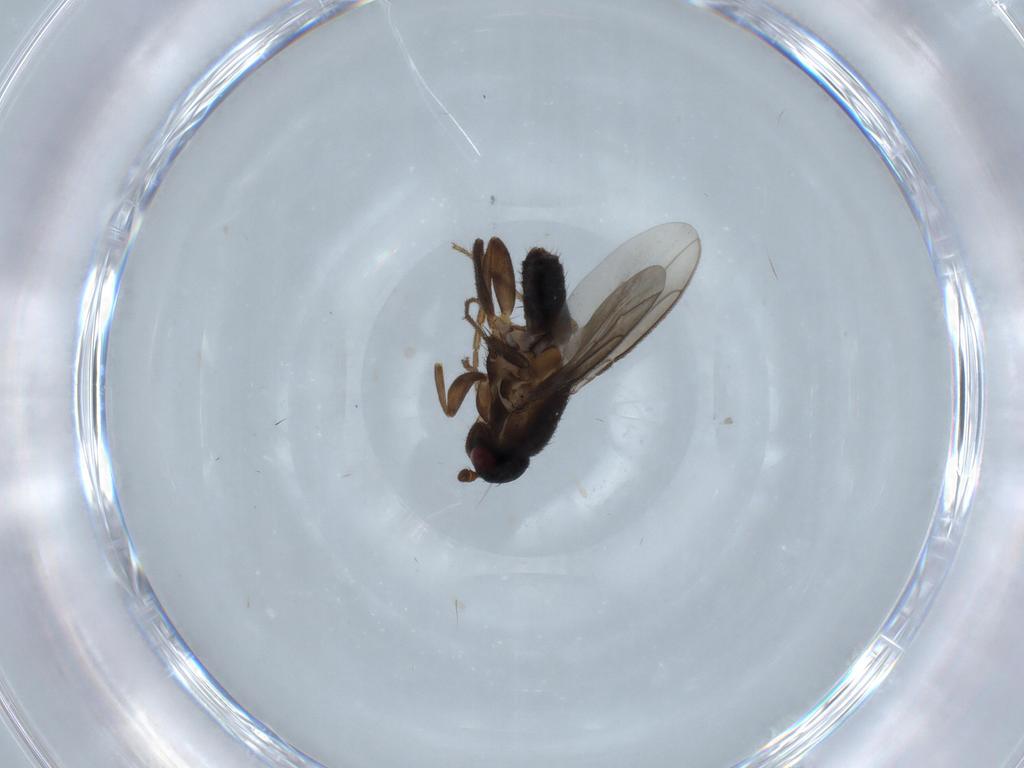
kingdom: Animalia
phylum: Arthropoda
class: Insecta
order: Diptera
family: Sphaeroceridae
